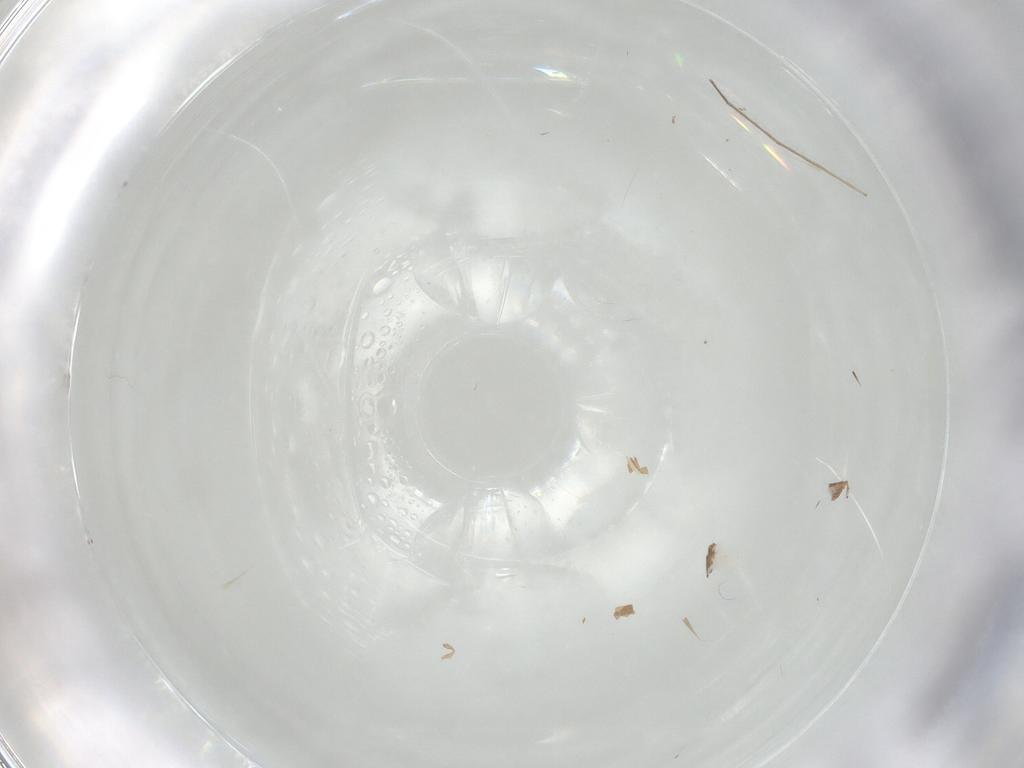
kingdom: Animalia
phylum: Arthropoda
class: Insecta
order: Diptera
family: Chironomidae
